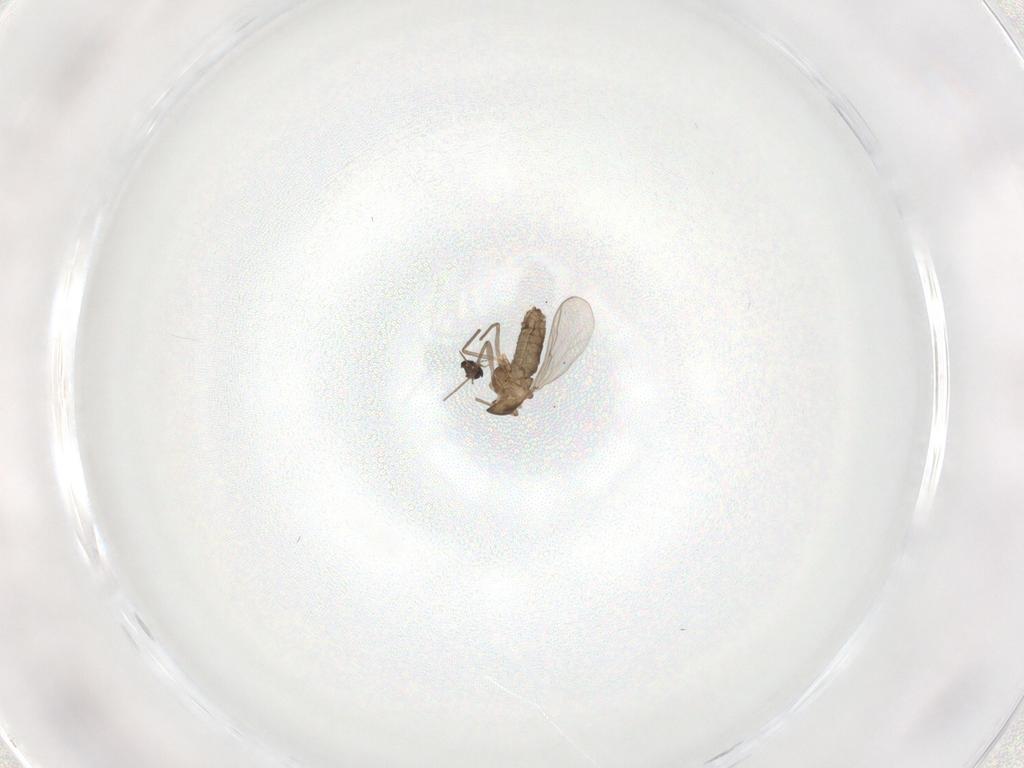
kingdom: Animalia
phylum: Arthropoda
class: Insecta
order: Diptera
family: Chironomidae
